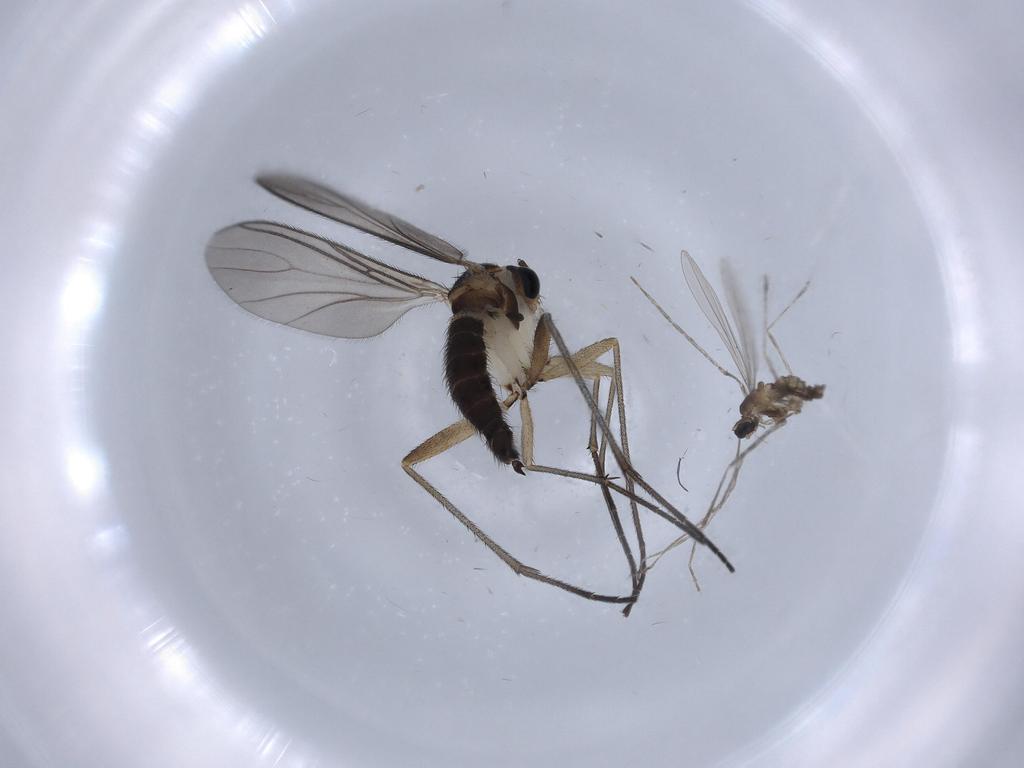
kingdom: Animalia
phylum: Arthropoda
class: Insecta
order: Diptera
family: Sciaridae
